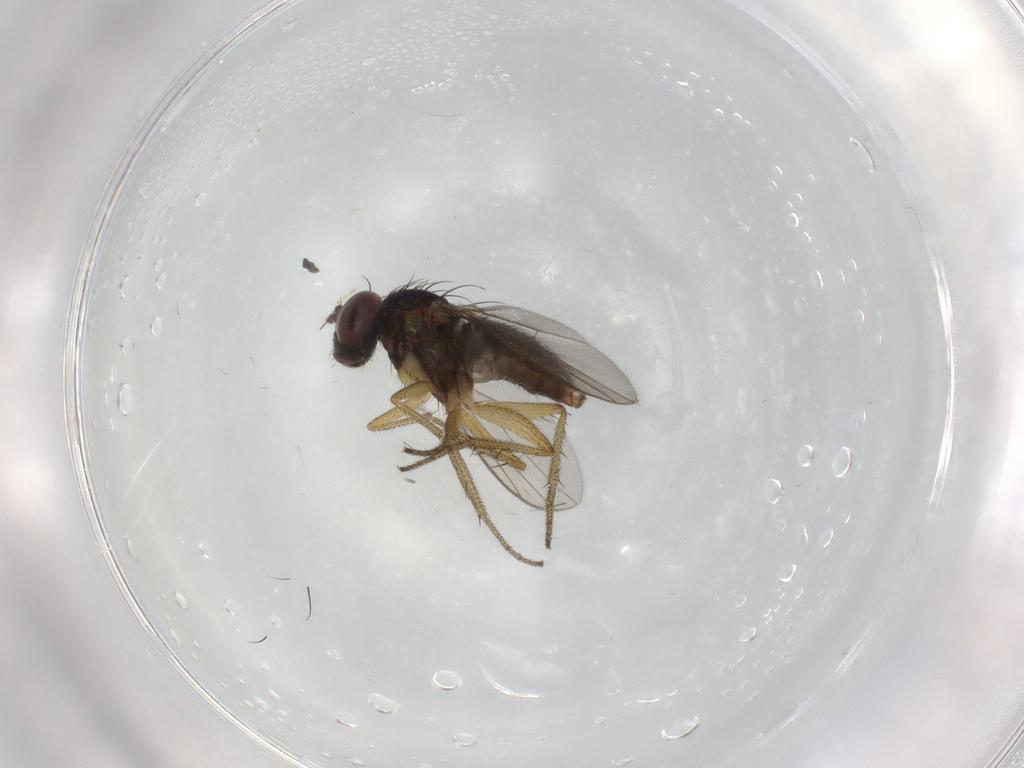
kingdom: Animalia
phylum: Arthropoda
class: Insecta
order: Diptera
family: Dolichopodidae
